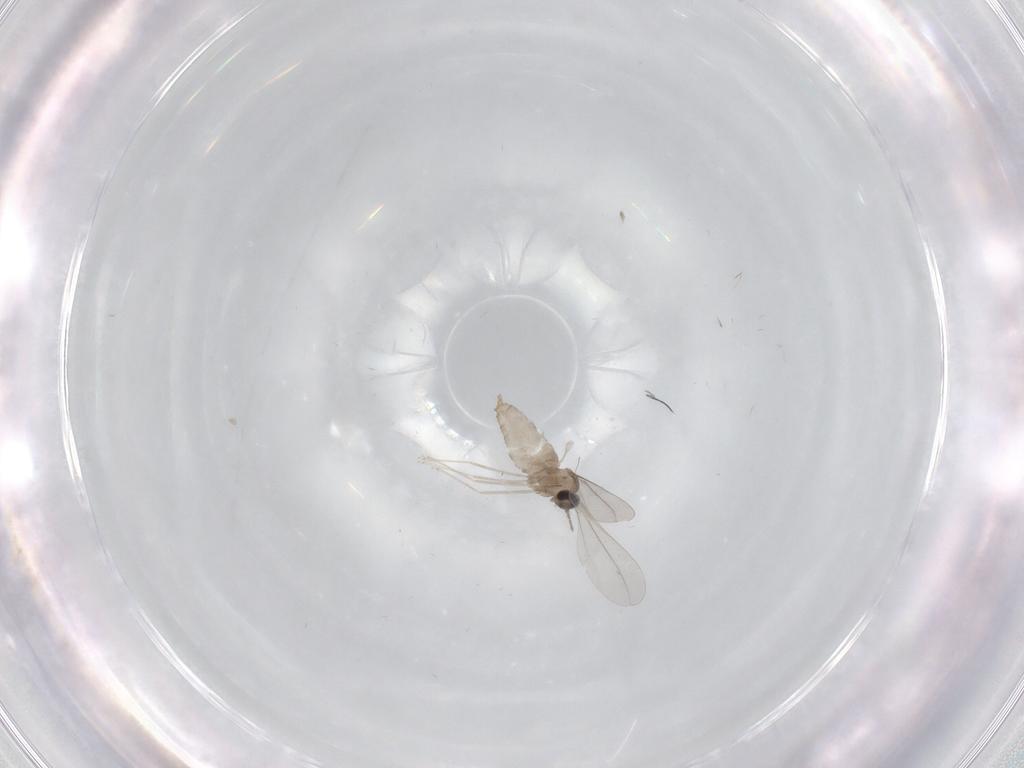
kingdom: Animalia
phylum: Arthropoda
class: Insecta
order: Diptera
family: Cecidomyiidae
